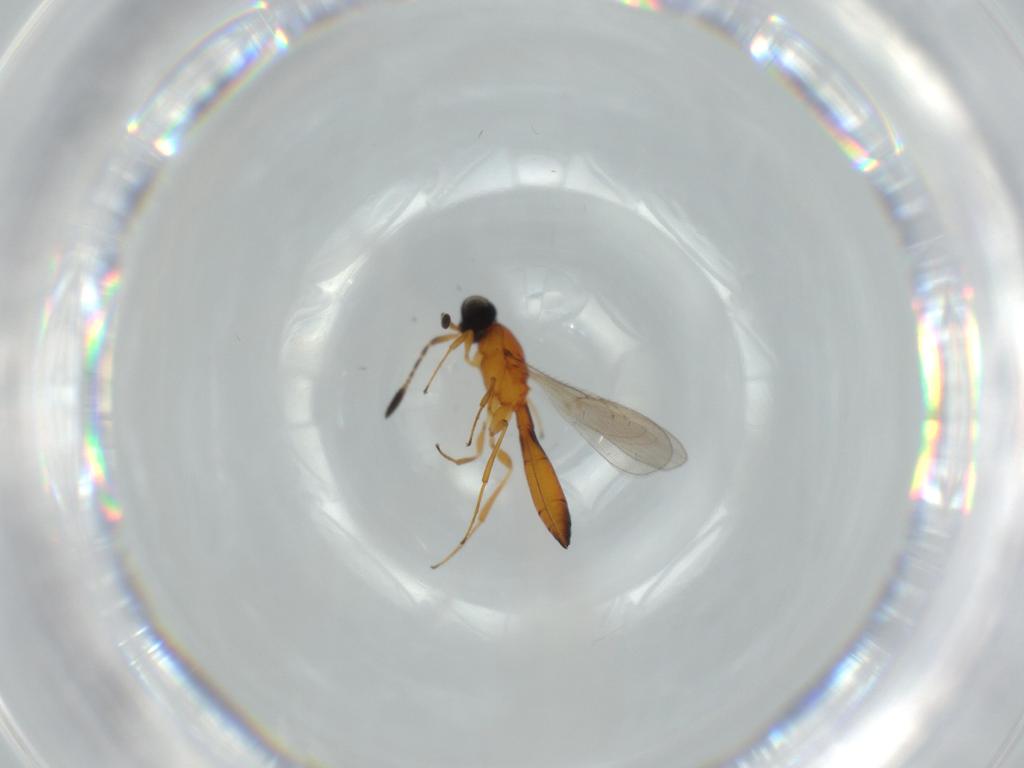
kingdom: Animalia
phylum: Arthropoda
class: Insecta
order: Hymenoptera
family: Scelionidae
